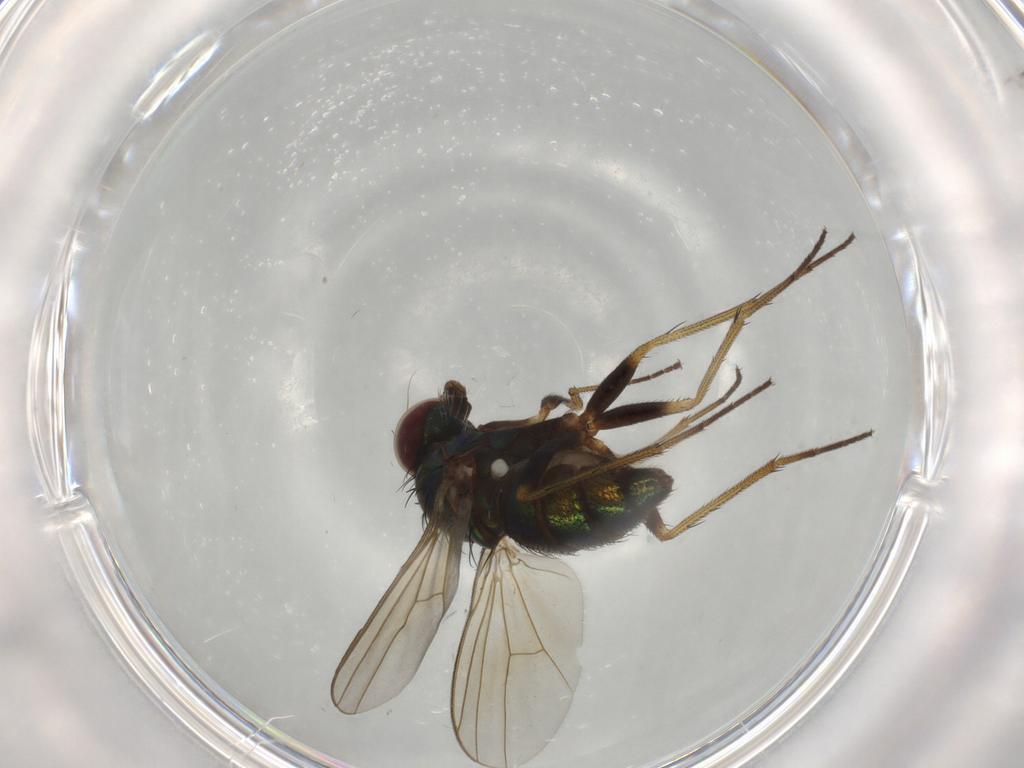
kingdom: Animalia
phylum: Arthropoda
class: Insecta
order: Diptera
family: Dolichopodidae
